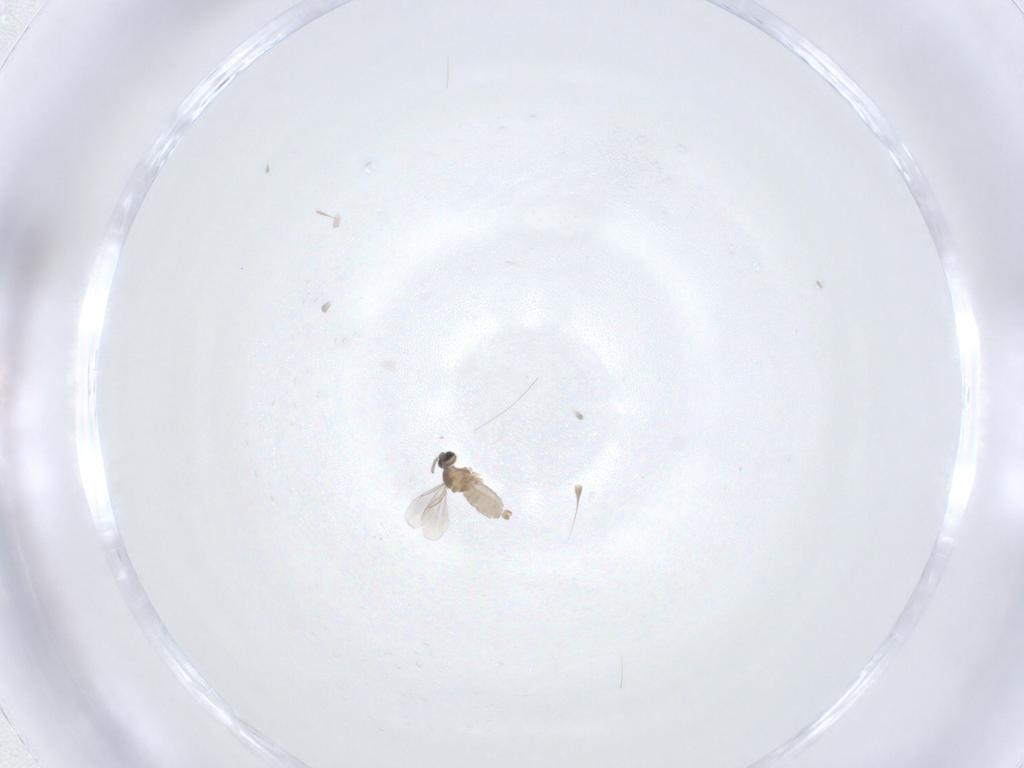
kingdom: Animalia
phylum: Arthropoda
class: Insecta
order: Diptera
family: Cecidomyiidae
